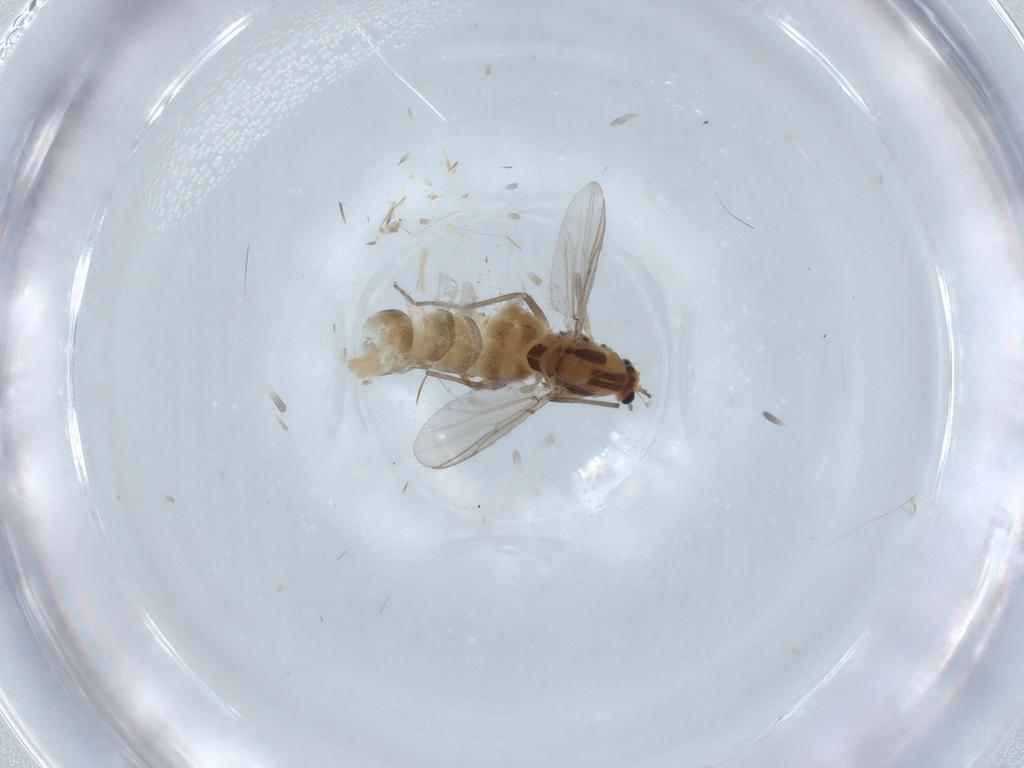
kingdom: Animalia
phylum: Arthropoda
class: Insecta
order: Diptera
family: Chironomidae
